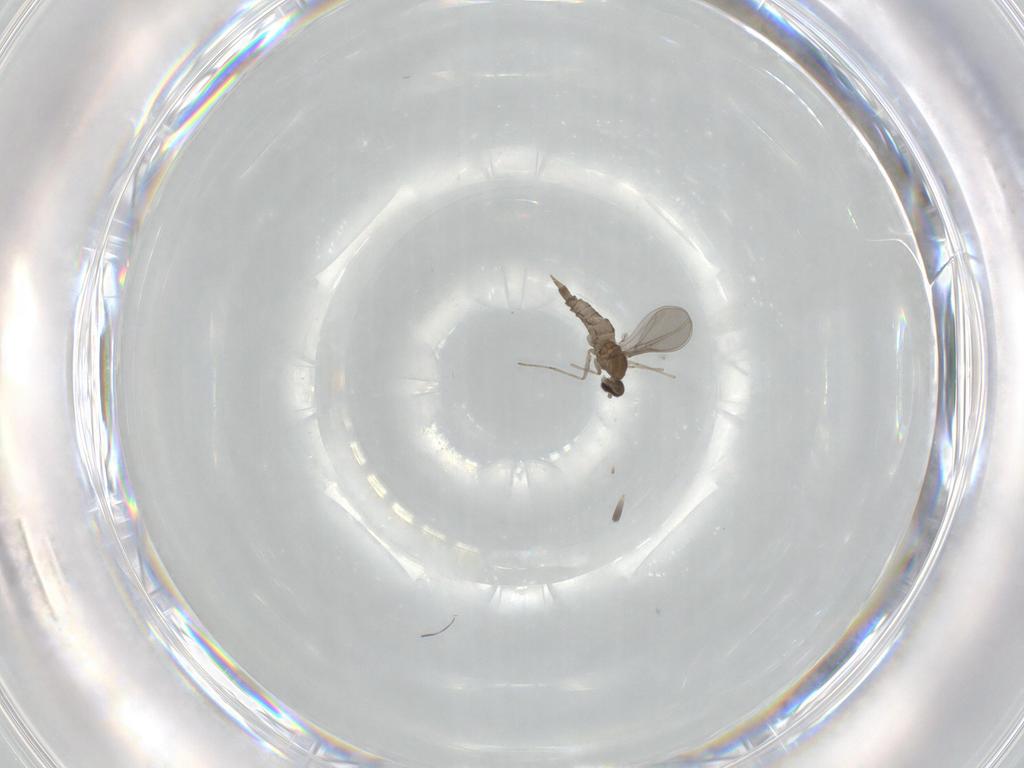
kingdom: Animalia
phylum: Arthropoda
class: Insecta
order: Diptera
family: Cecidomyiidae
